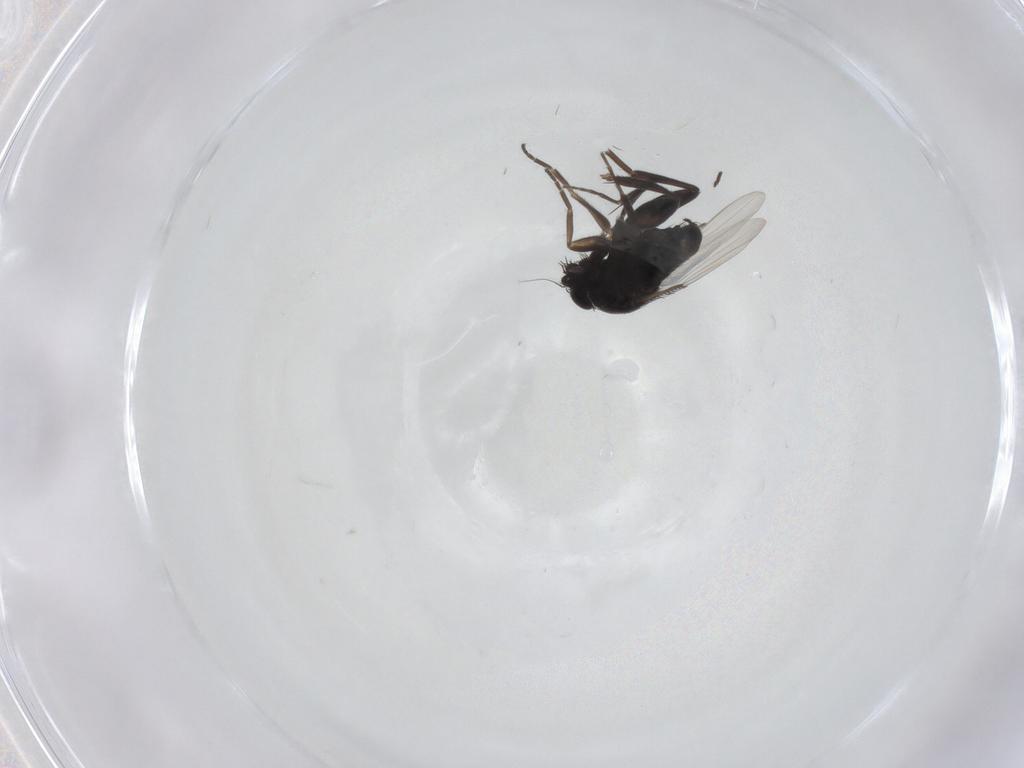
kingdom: Animalia
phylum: Arthropoda
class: Insecta
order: Diptera
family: Phoridae
